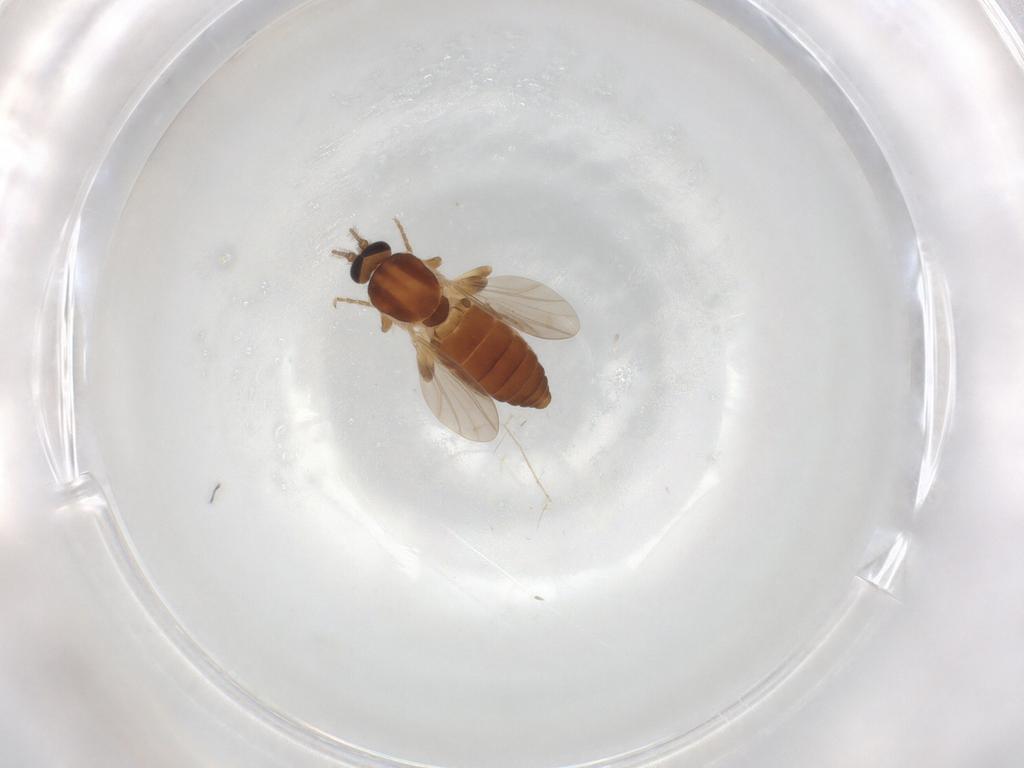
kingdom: Animalia
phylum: Arthropoda
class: Insecta
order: Diptera
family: Ceratopogonidae
